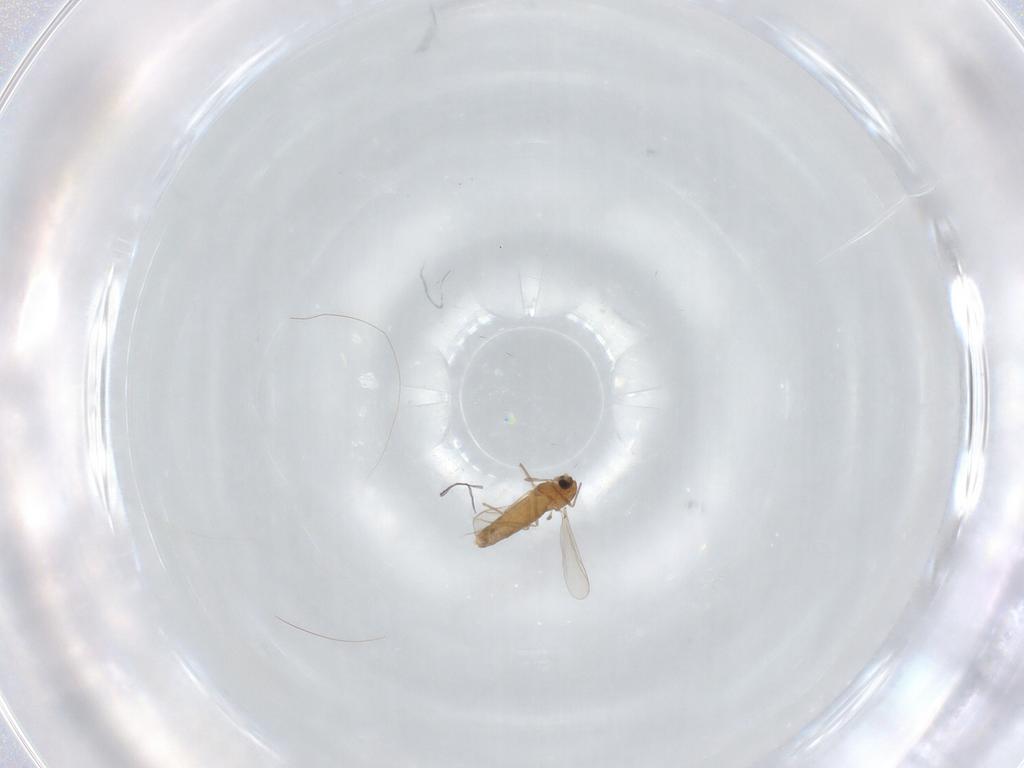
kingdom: Animalia
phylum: Arthropoda
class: Insecta
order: Diptera
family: Chironomidae
